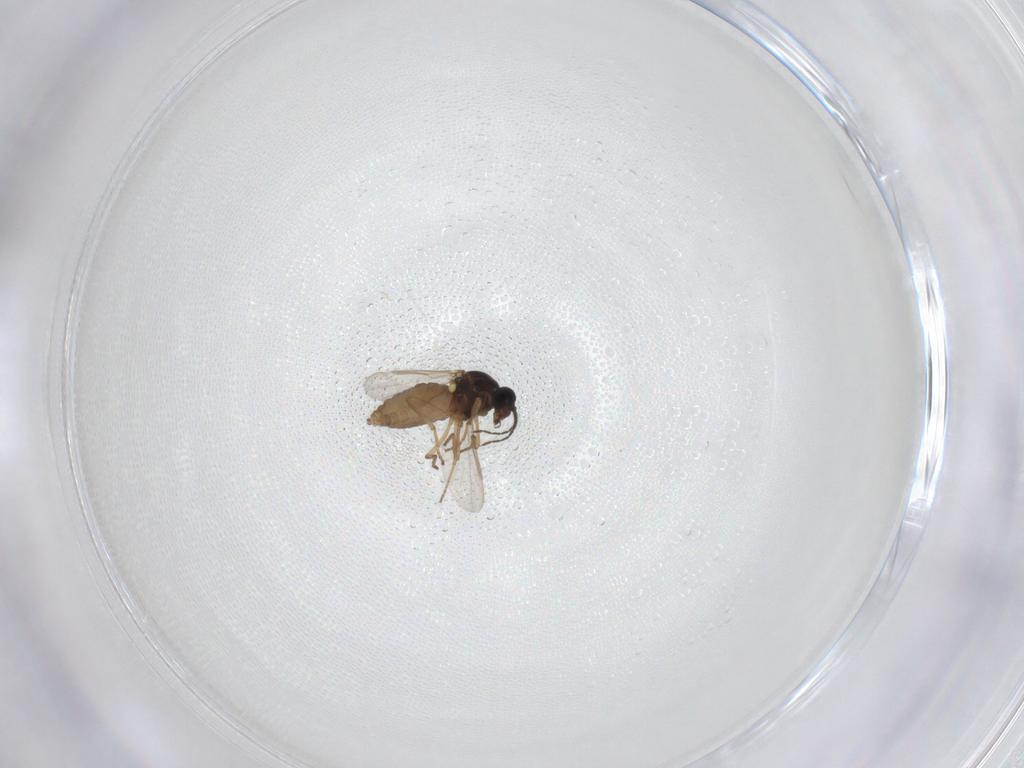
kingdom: Animalia
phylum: Arthropoda
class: Insecta
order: Diptera
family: Ceratopogonidae
